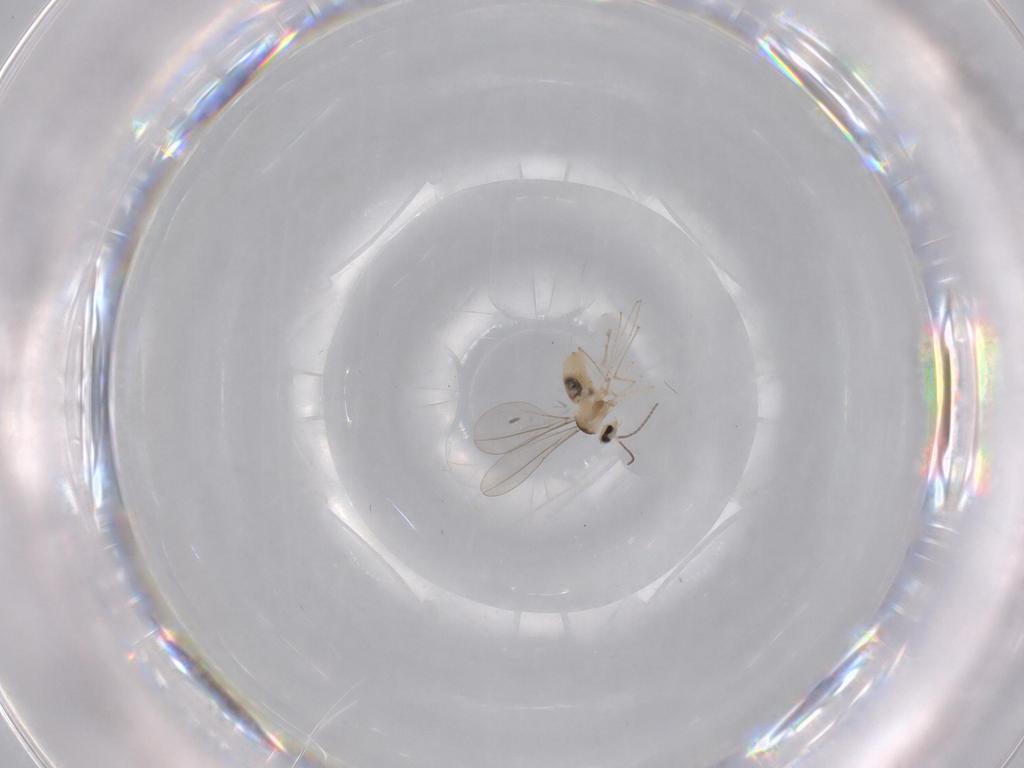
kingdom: Animalia
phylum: Arthropoda
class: Insecta
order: Diptera
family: Cecidomyiidae
